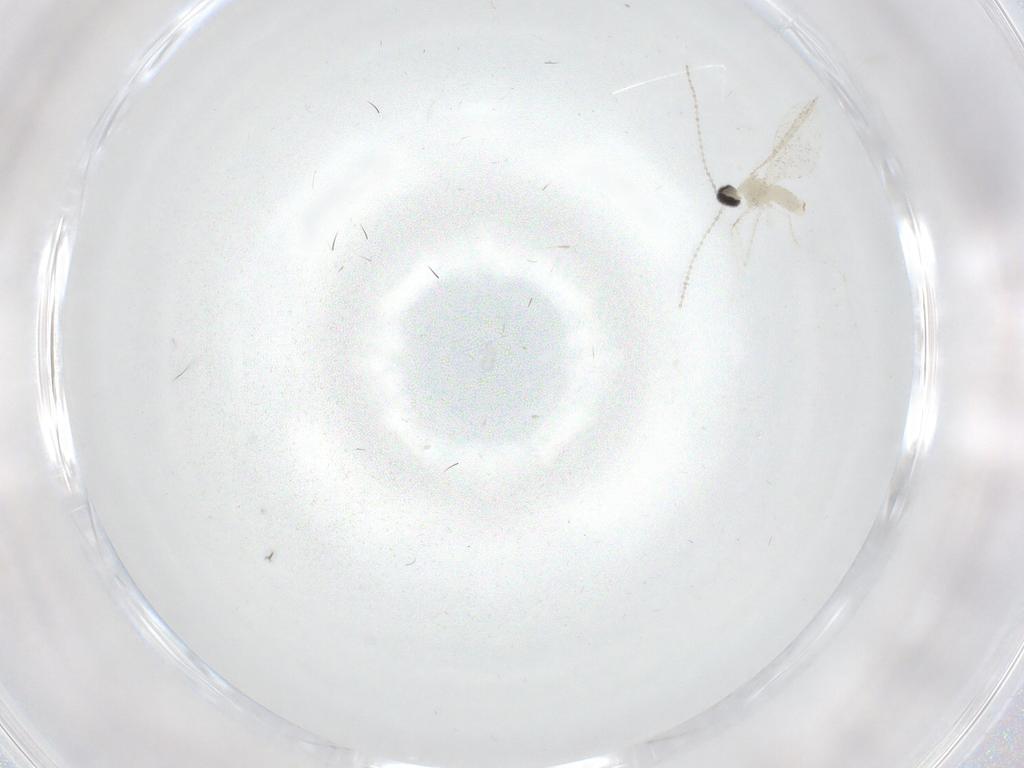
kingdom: Animalia
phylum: Arthropoda
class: Insecta
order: Diptera
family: Cecidomyiidae
